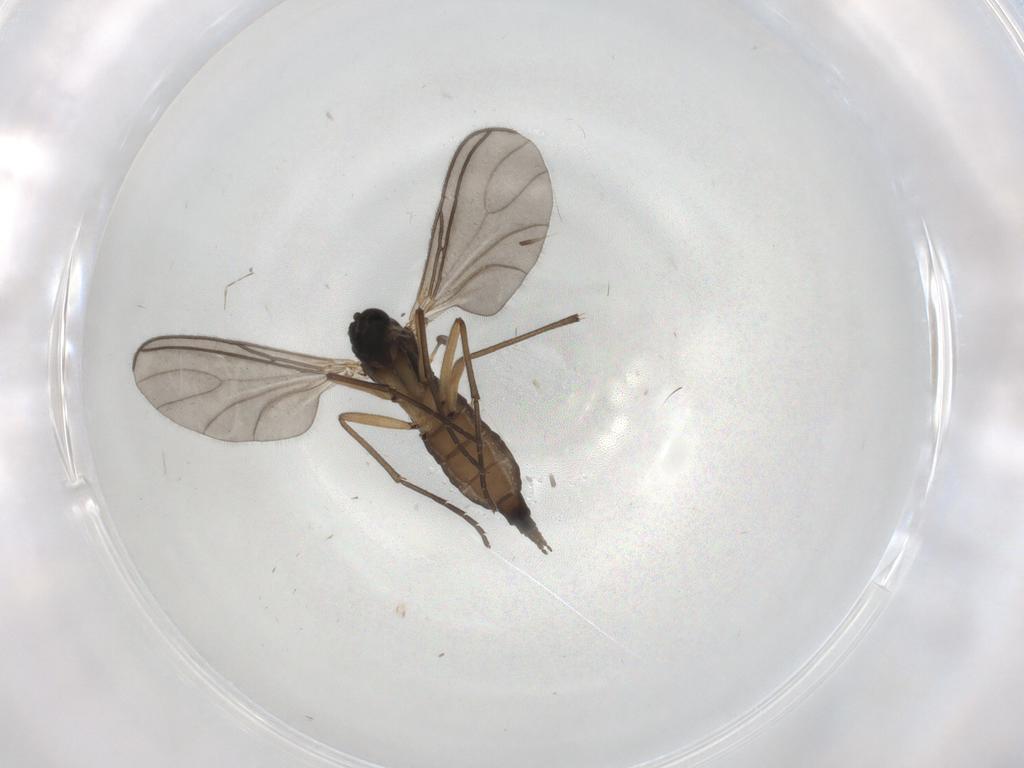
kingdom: Animalia
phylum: Arthropoda
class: Insecta
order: Diptera
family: Sciaridae
